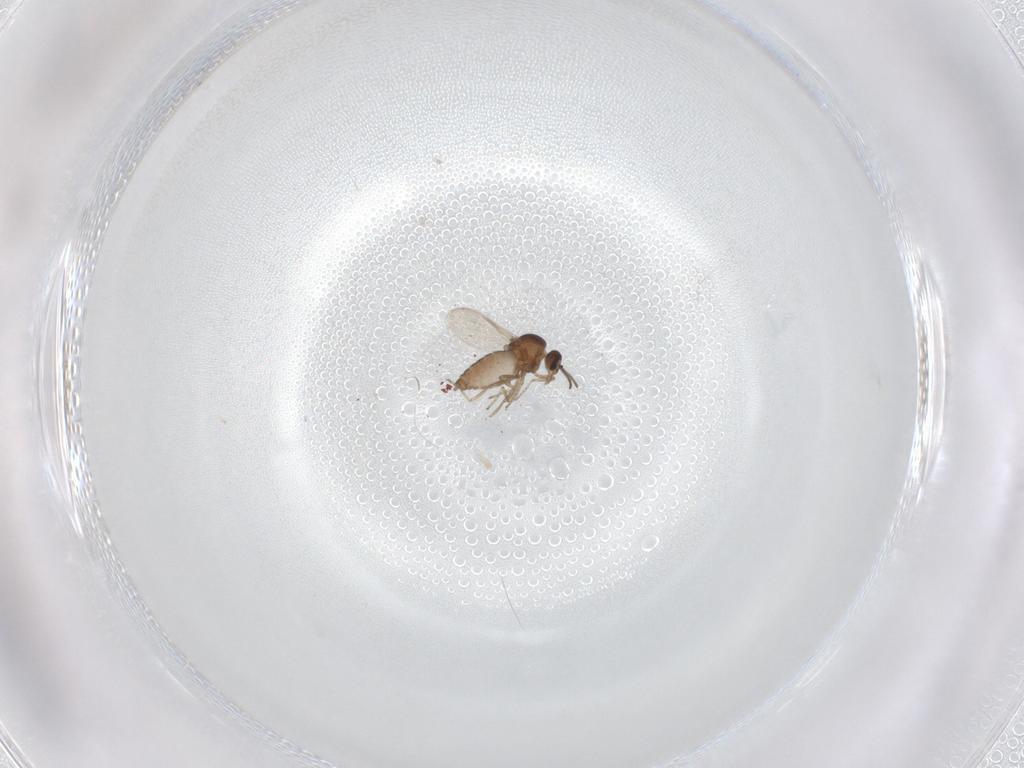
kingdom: Animalia
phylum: Arthropoda
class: Insecta
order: Diptera
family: Ceratopogonidae
